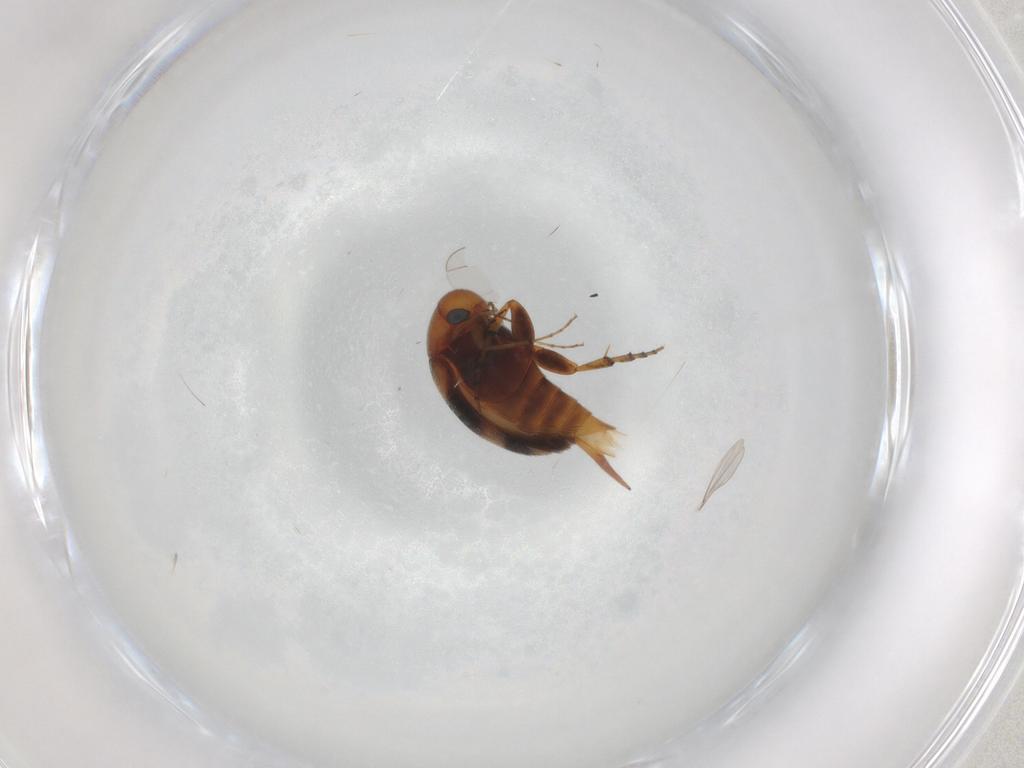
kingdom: Animalia
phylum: Arthropoda
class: Insecta
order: Coleoptera
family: Mordellidae
